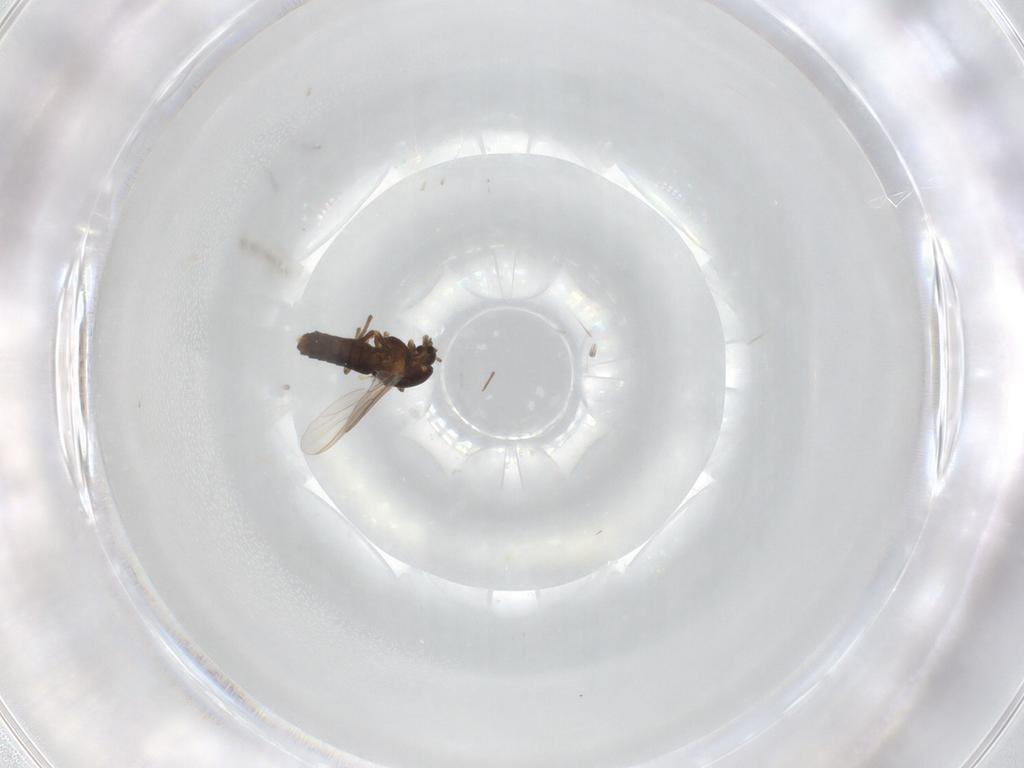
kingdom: Animalia
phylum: Arthropoda
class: Insecta
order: Diptera
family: Chironomidae
